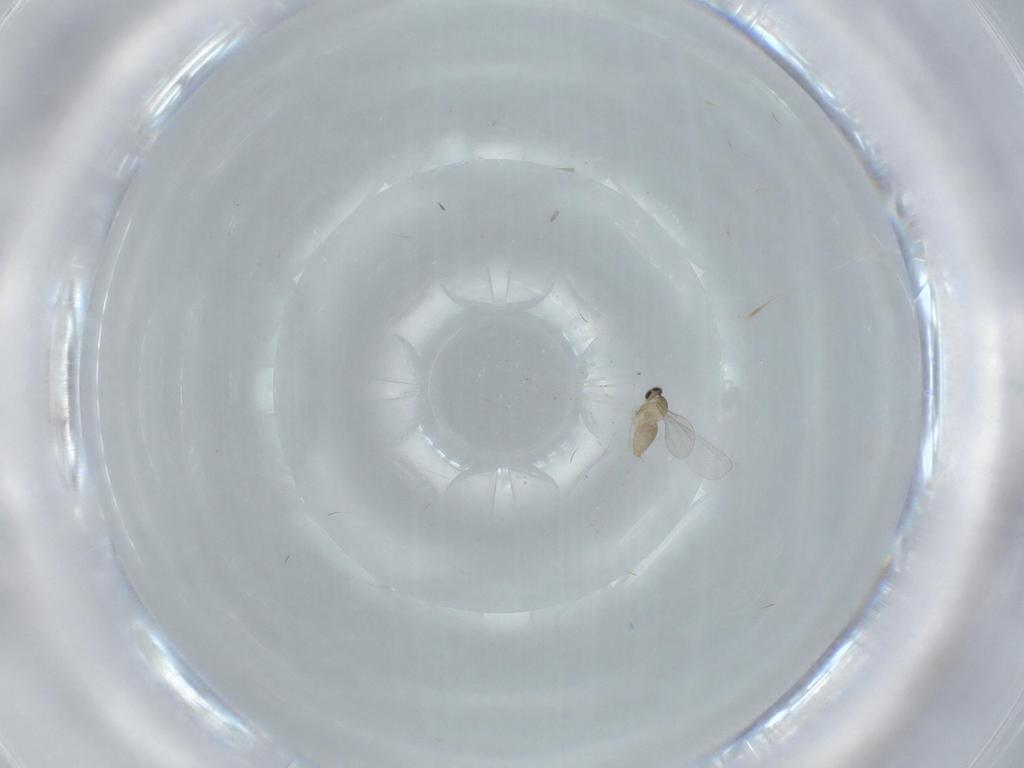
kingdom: Animalia
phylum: Arthropoda
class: Insecta
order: Diptera
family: Cecidomyiidae
